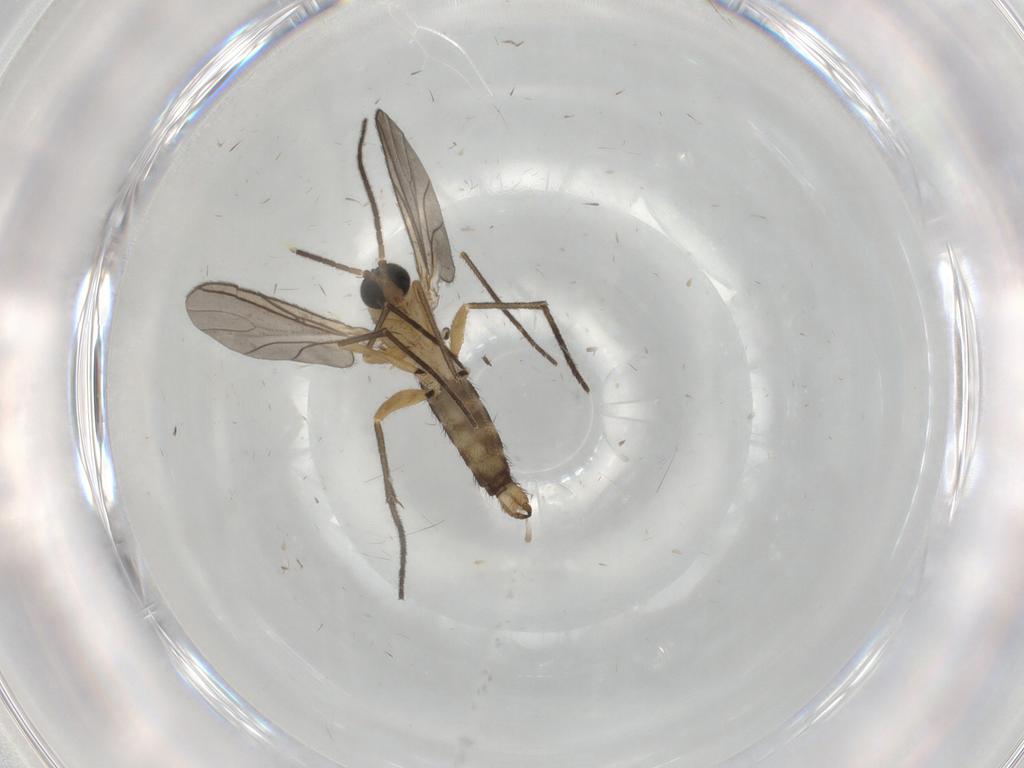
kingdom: Animalia
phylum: Arthropoda
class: Insecta
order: Diptera
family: Sciaridae
